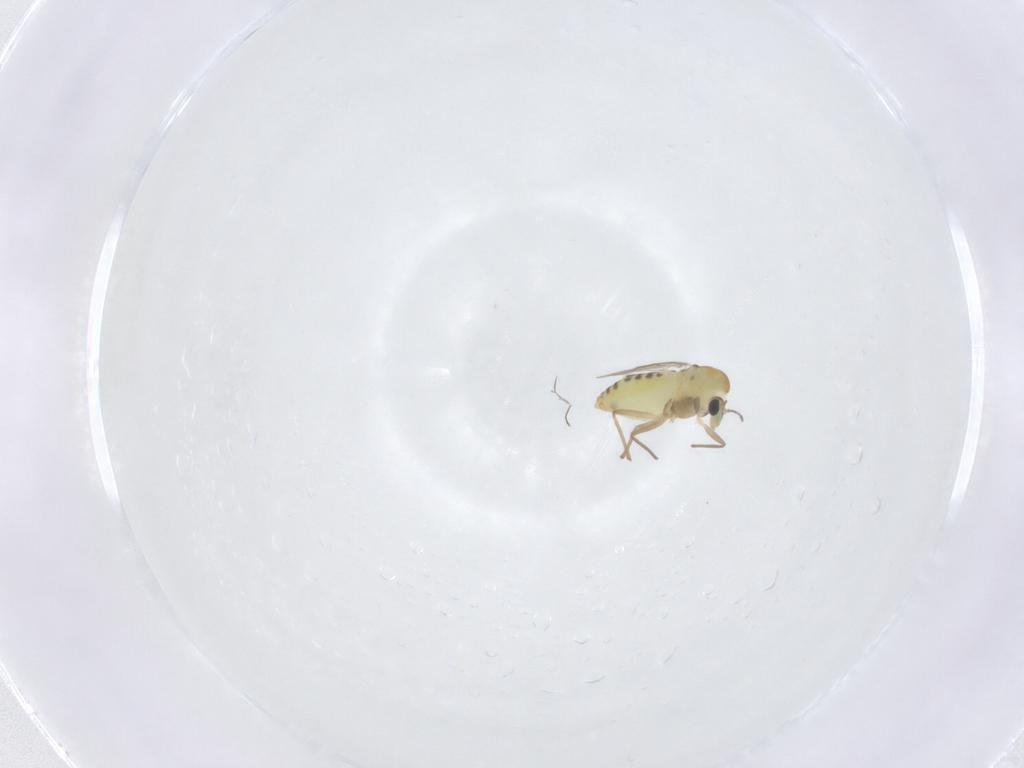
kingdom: Animalia
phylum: Arthropoda
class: Insecta
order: Diptera
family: Chironomidae
